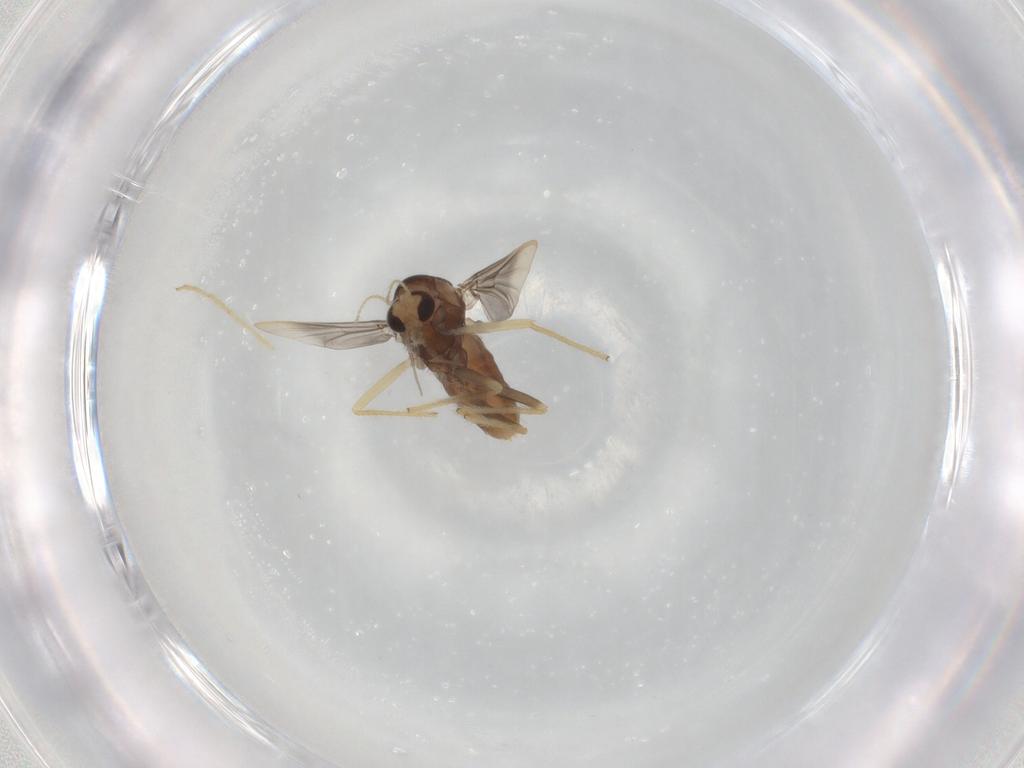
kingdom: Animalia
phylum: Arthropoda
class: Insecta
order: Diptera
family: Chironomidae
